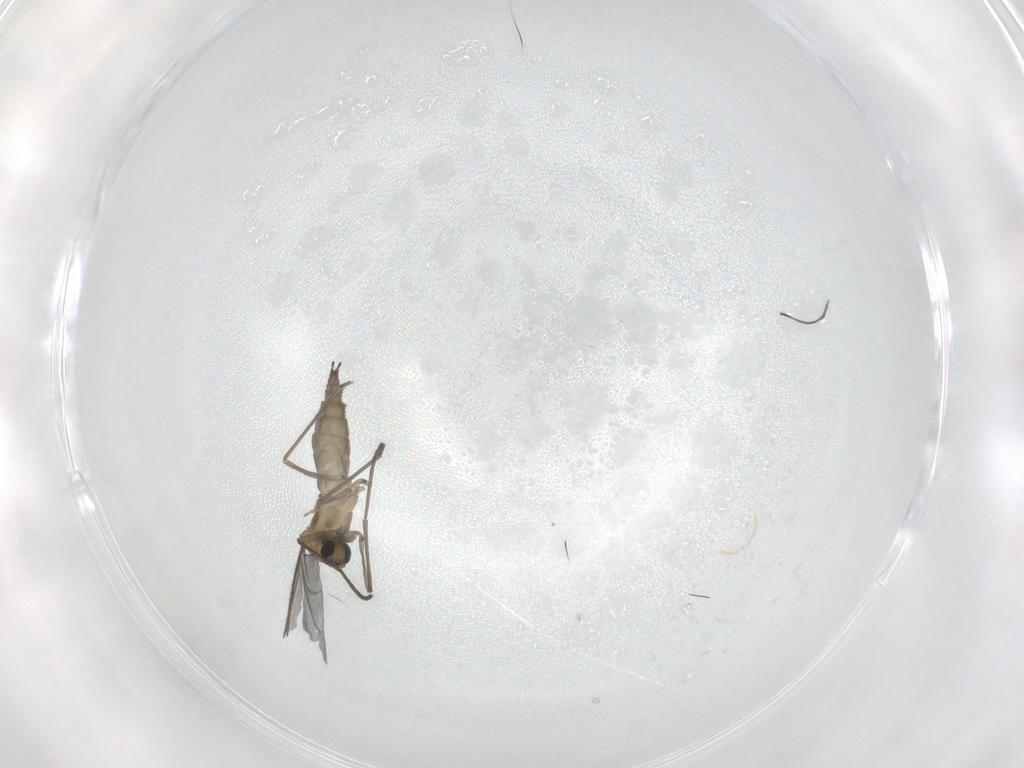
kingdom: Animalia
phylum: Arthropoda
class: Insecta
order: Diptera
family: Sciaridae
